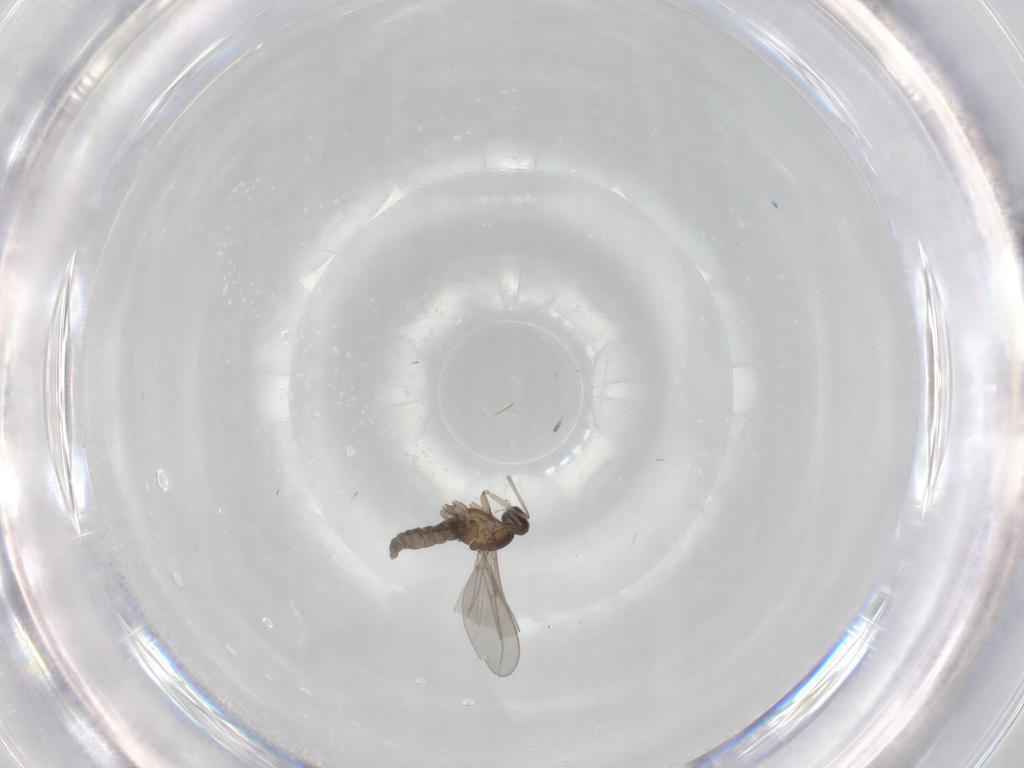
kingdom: Animalia
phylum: Arthropoda
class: Insecta
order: Diptera
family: Cecidomyiidae
